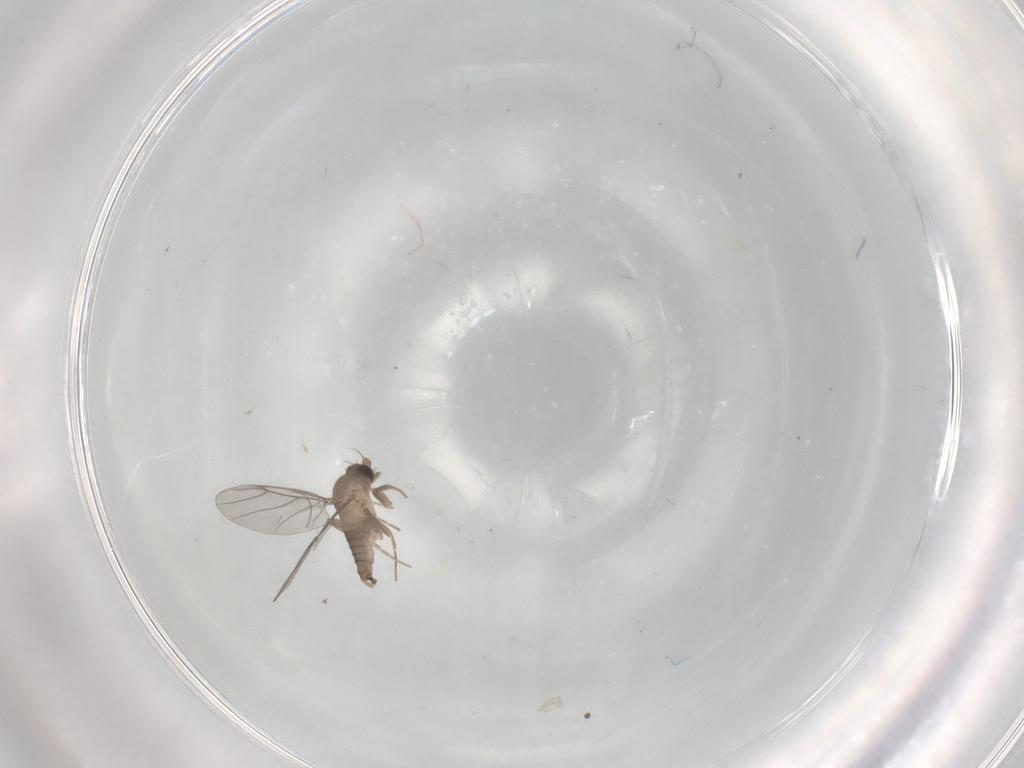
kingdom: Animalia
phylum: Arthropoda
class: Insecta
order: Diptera
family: Psychodidae
